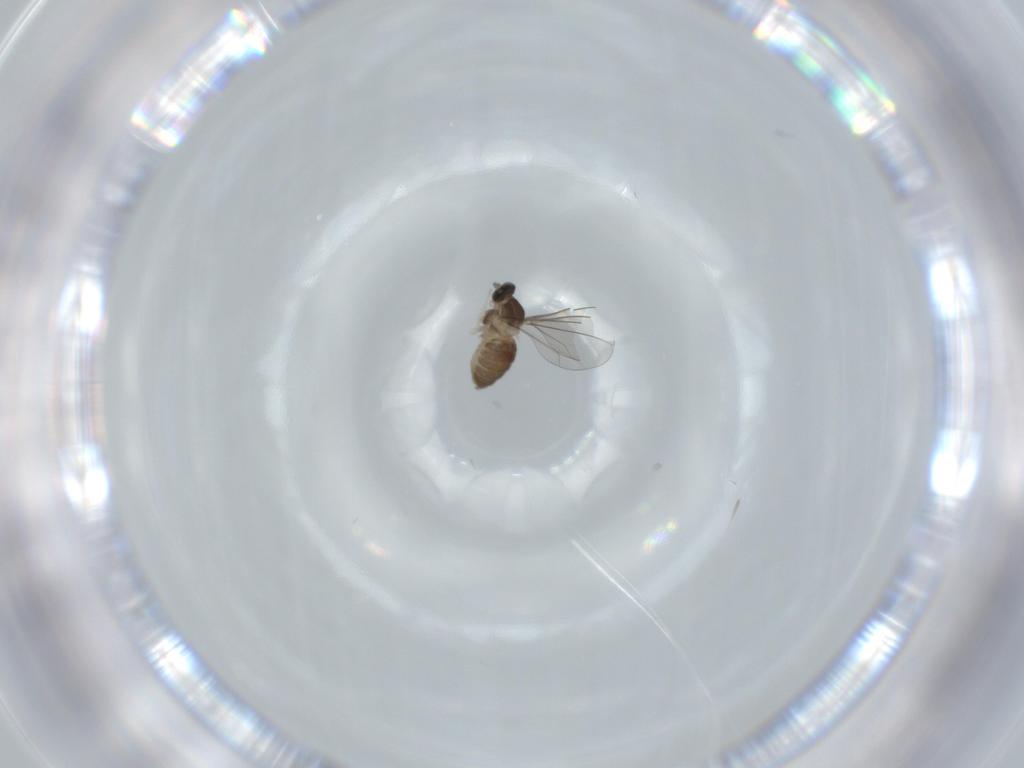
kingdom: Animalia
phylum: Arthropoda
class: Insecta
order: Diptera
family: Cecidomyiidae
